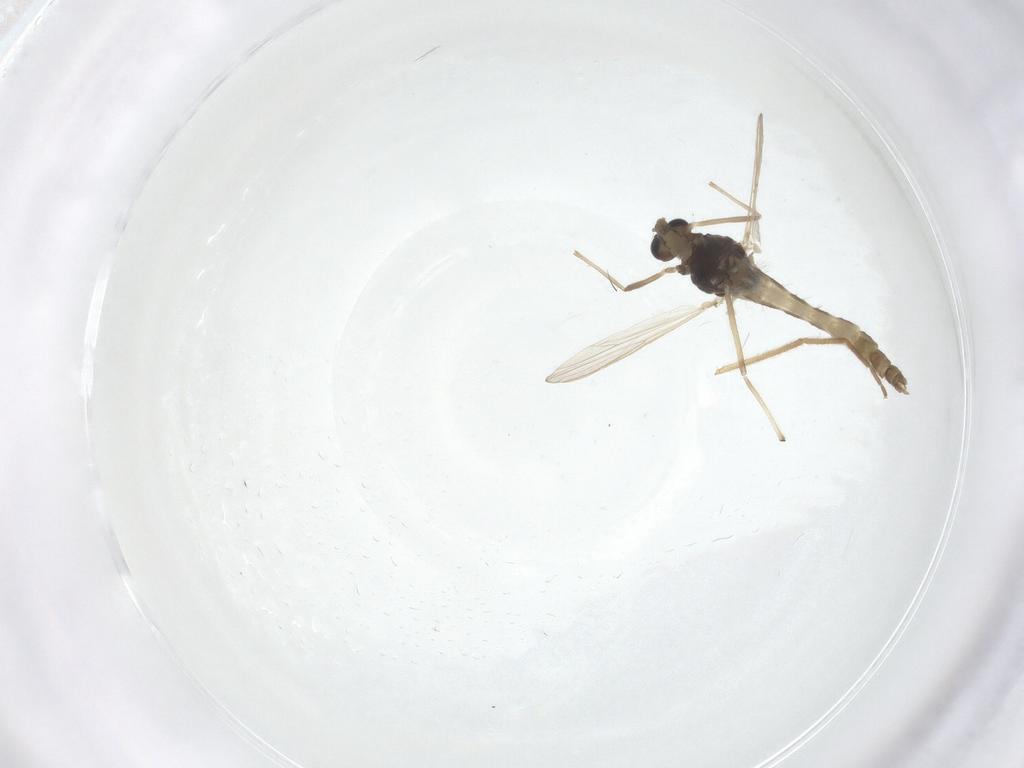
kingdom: Animalia
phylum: Arthropoda
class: Insecta
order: Diptera
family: Chironomidae
